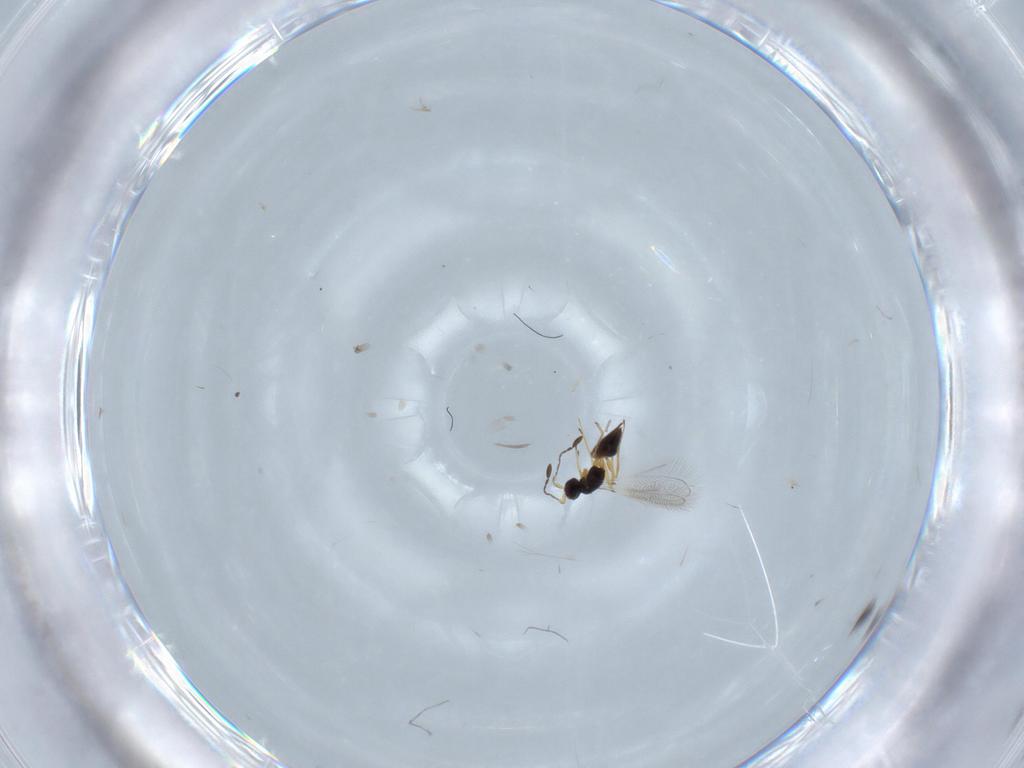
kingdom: Animalia
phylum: Arthropoda
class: Insecta
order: Hymenoptera
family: Mymaridae
